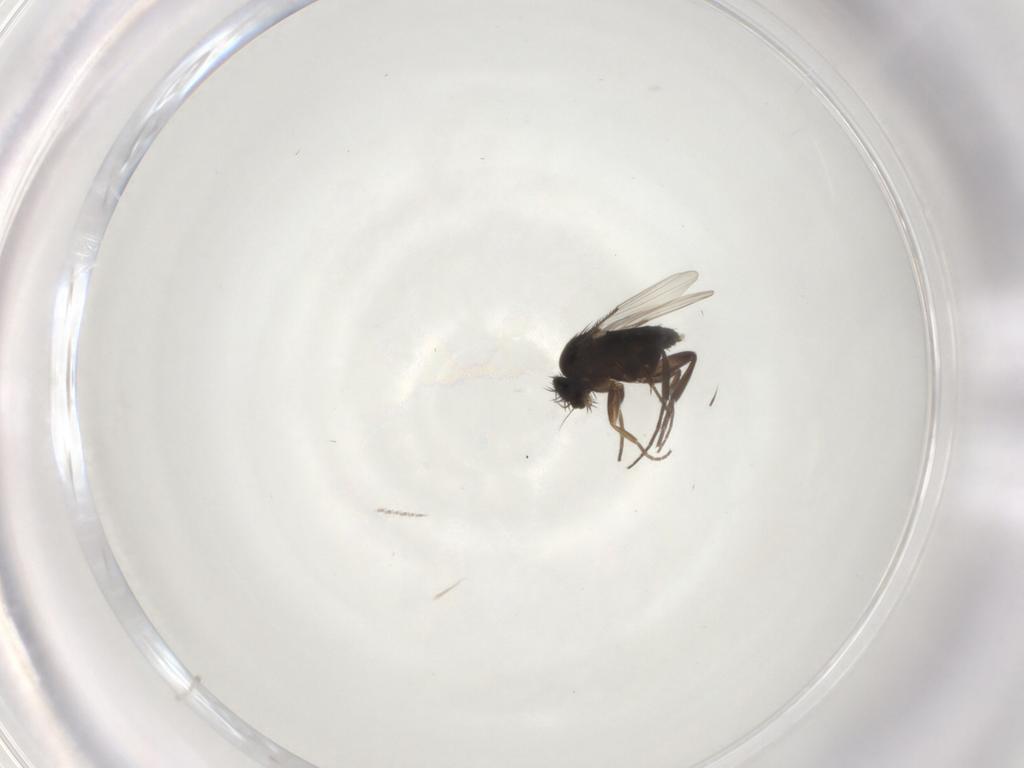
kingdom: Animalia
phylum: Arthropoda
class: Insecta
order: Diptera
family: Phoridae
